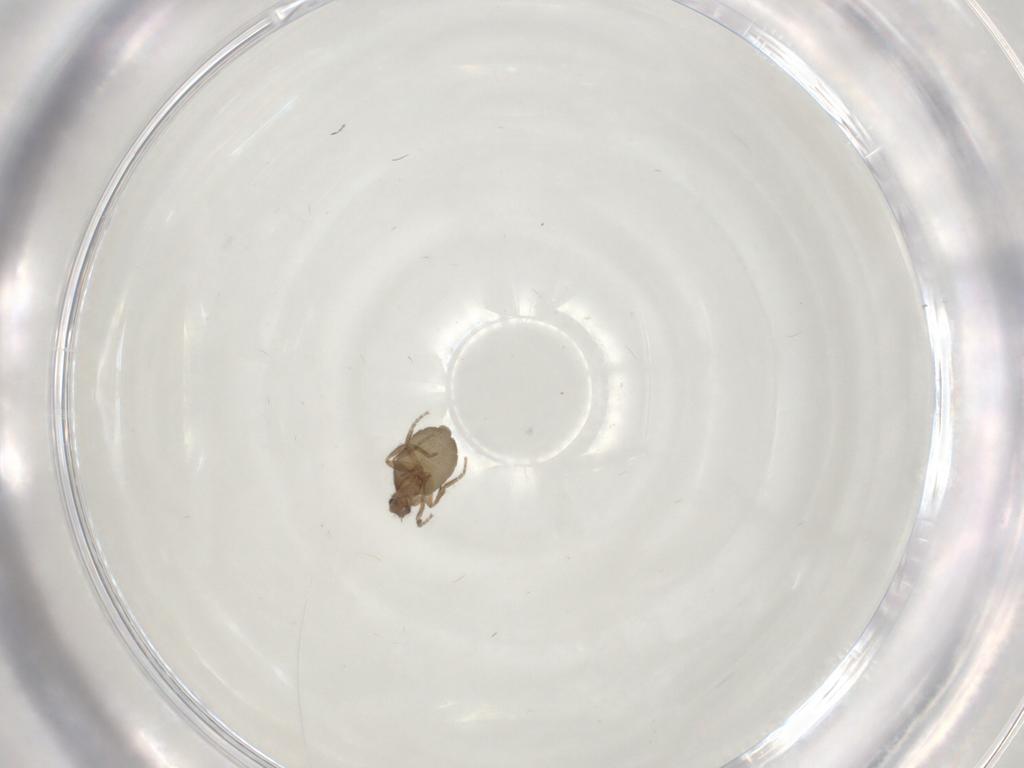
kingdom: Animalia
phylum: Arthropoda
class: Insecta
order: Diptera
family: Phoridae
